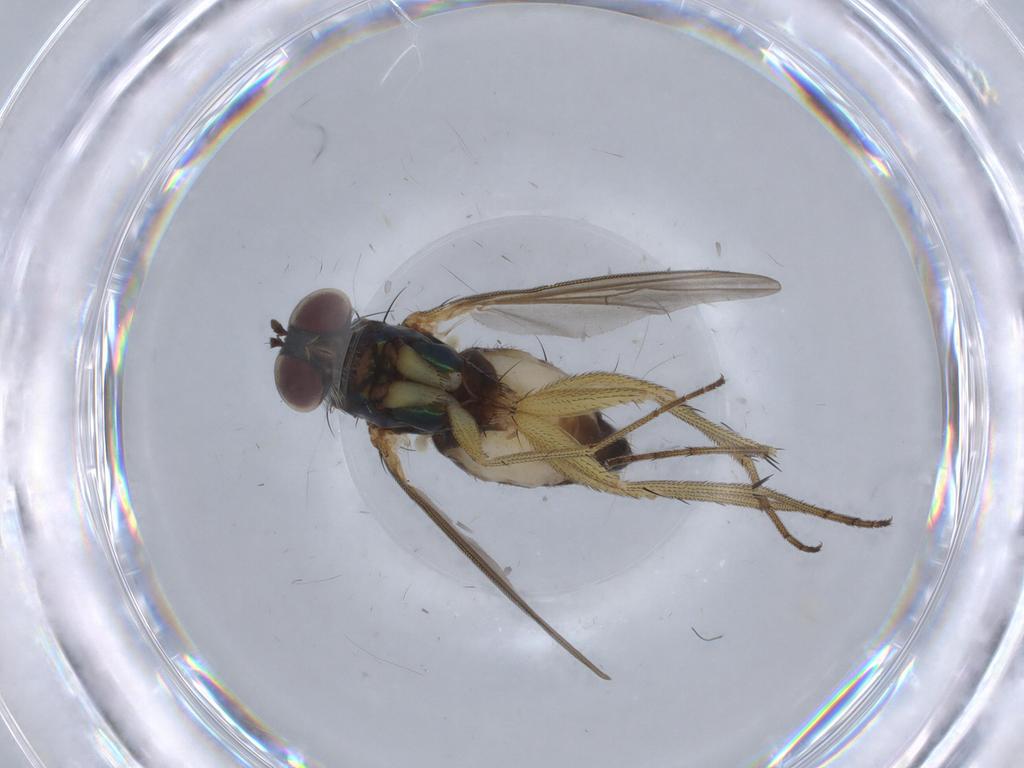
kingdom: Animalia
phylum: Arthropoda
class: Insecta
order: Diptera
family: Dolichopodidae
